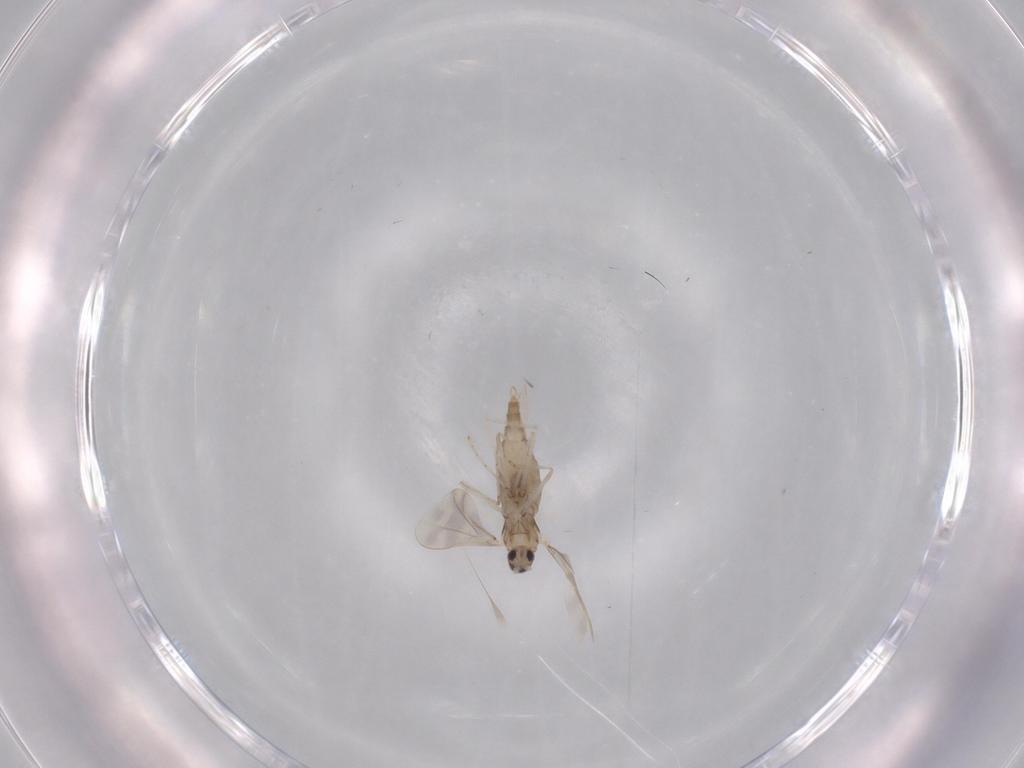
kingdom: Animalia
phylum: Arthropoda
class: Insecta
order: Diptera
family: Cecidomyiidae
